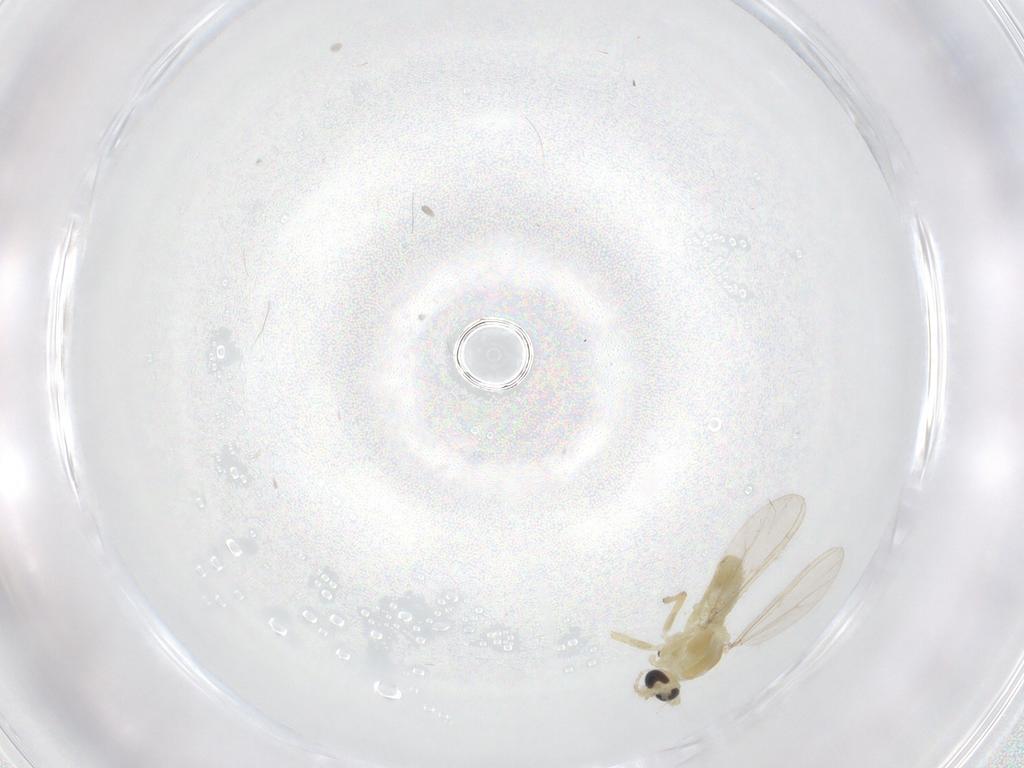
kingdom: Animalia
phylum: Arthropoda
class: Insecta
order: Diptera
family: Chironomidae
